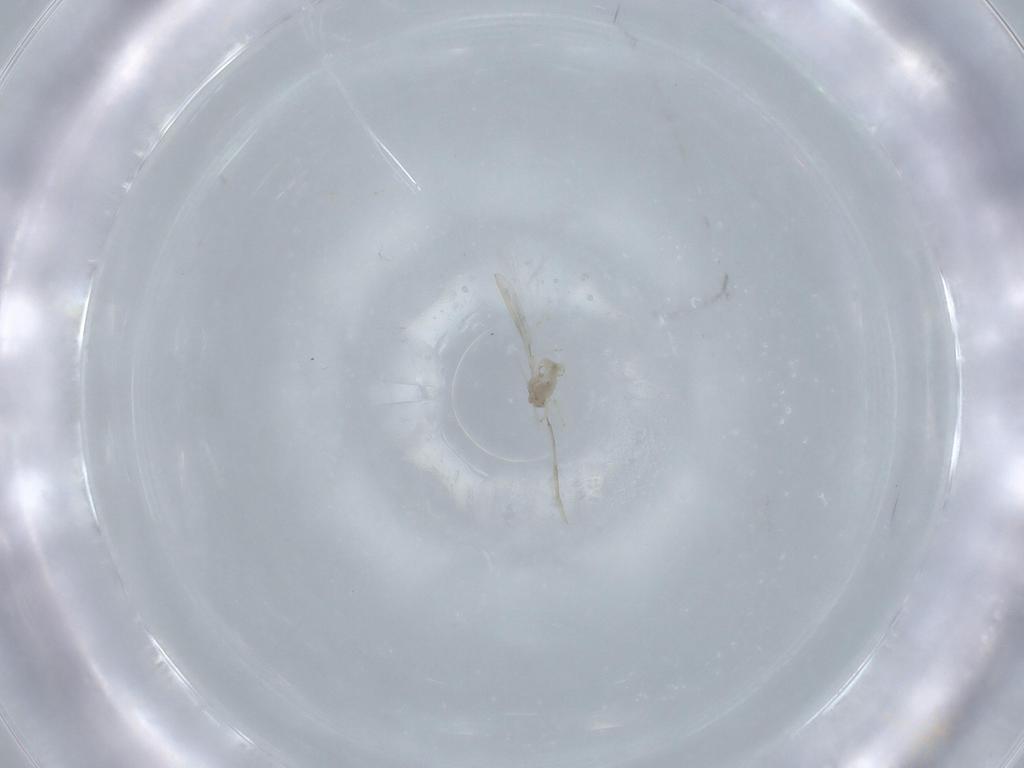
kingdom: Animalia
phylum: Arthropoda
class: Insecta
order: Diptera
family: Cecidomyiidae
